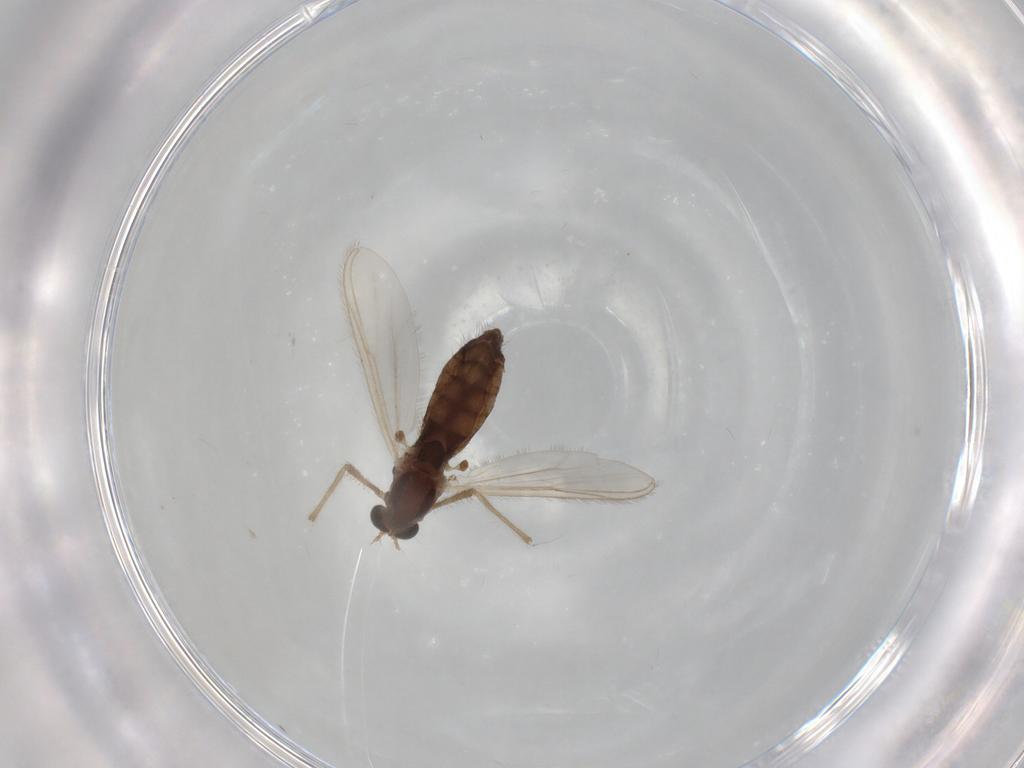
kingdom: Animalia
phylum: Arthropoda
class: Insecta
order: Diptera
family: Chironomidae
